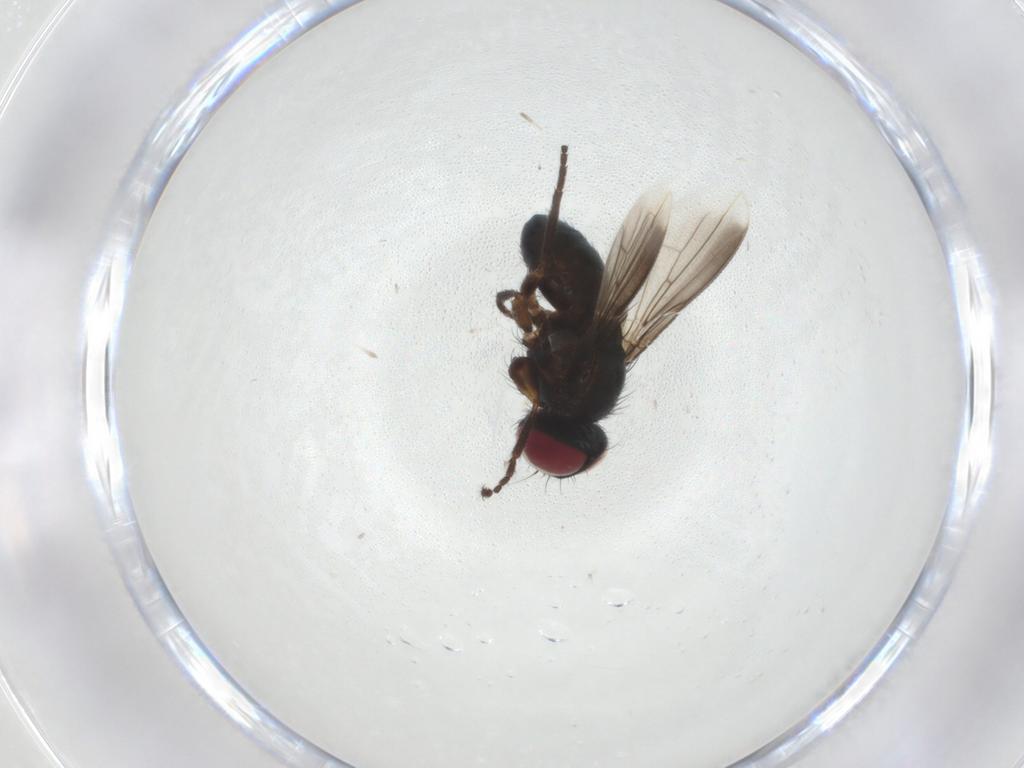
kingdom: Animalia
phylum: Arthropoda
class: Insecta
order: Diptera
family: Tachinidae
